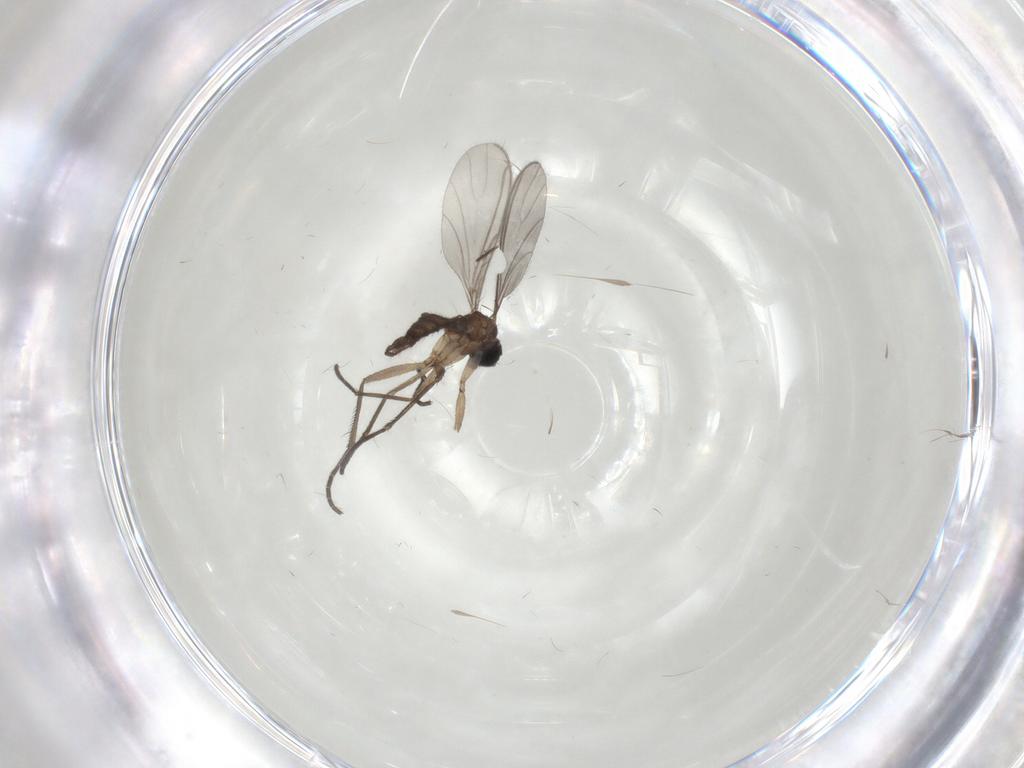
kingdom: Animalia
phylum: Arthropoda
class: Insecta
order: Diptera
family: Sciaridae
